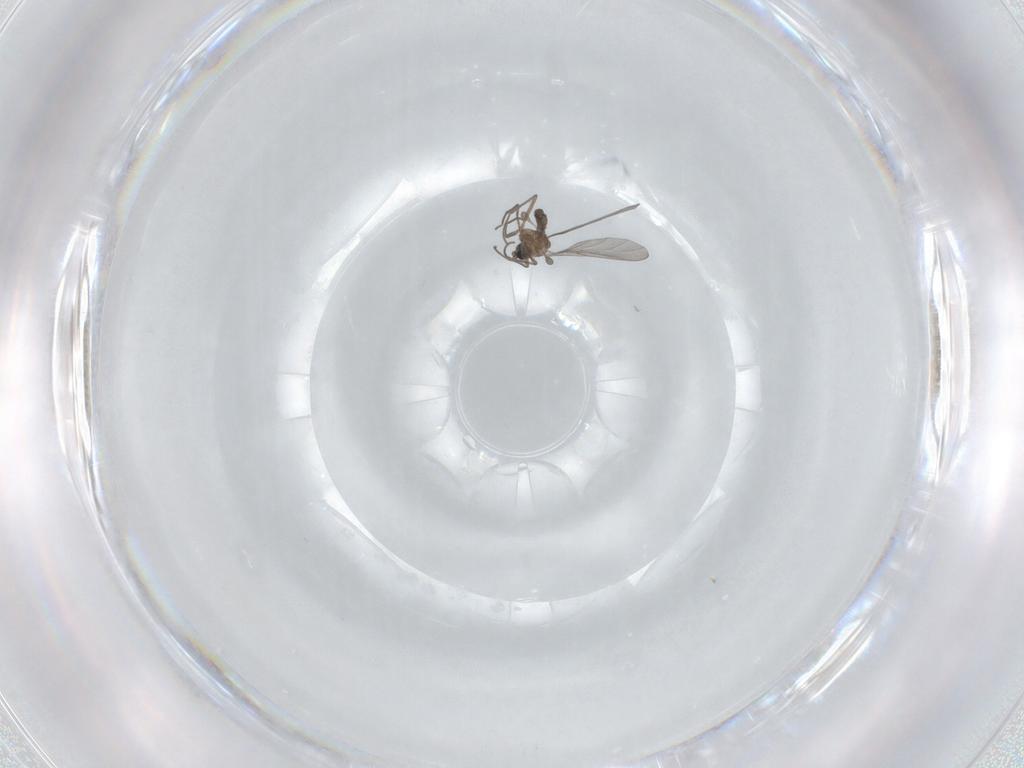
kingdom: Animalia
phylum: Arthropoda
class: Insecta
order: Diptera
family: Sciaridae
